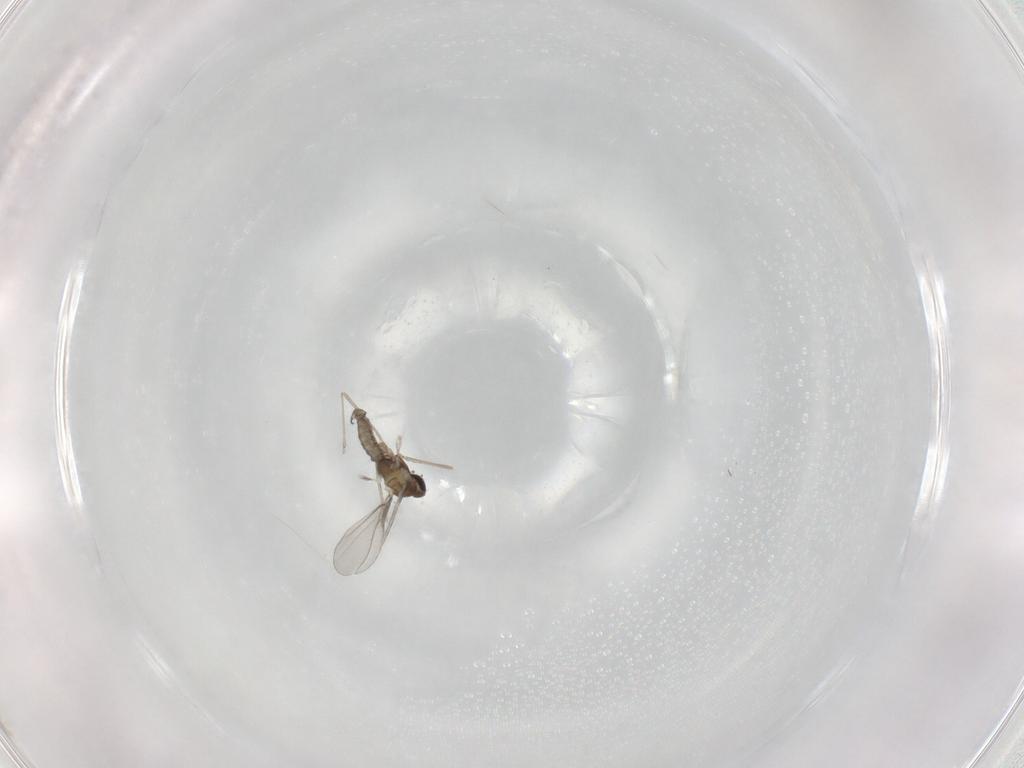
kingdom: Animalia
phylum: Arthropoda
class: Insecta
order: Diptera
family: Cecidomyiidae
